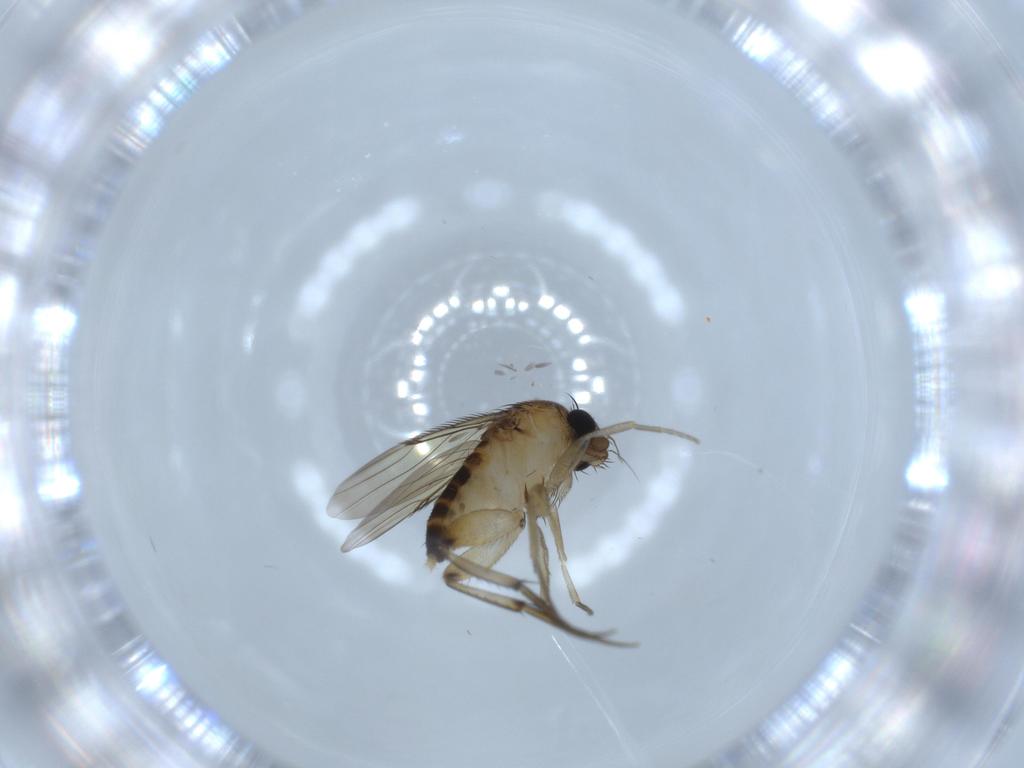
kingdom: Animalia
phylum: Arthropoda
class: Insecta
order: Diptera
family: Phoridae
